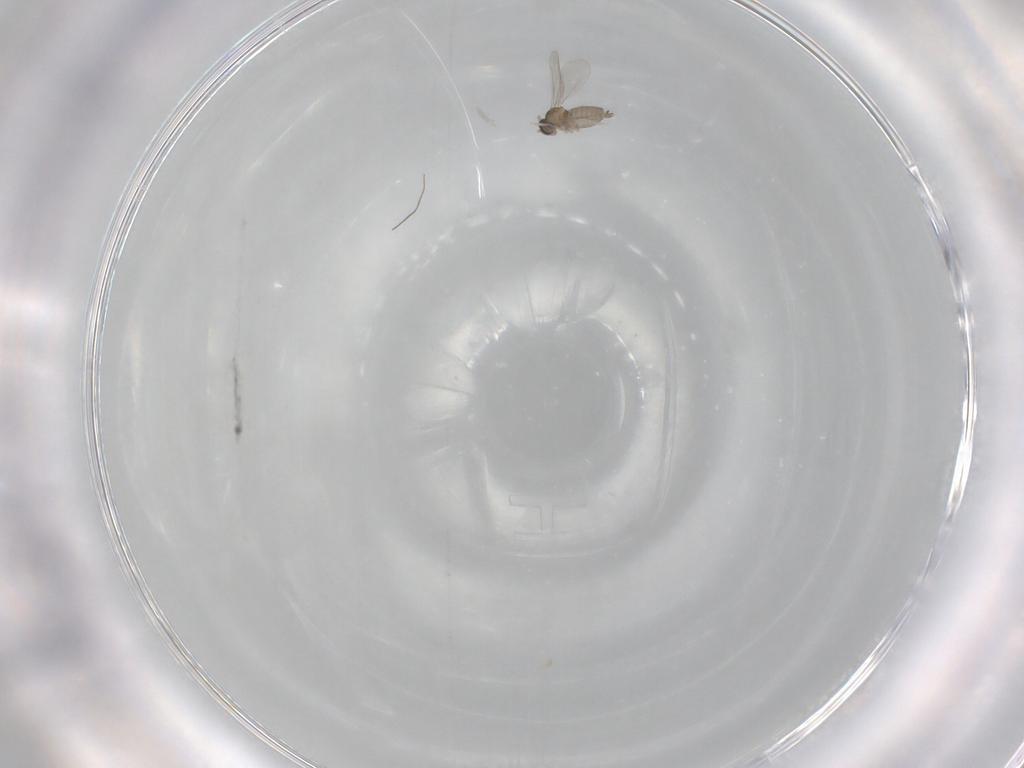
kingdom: Animalia
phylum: Arthropoda
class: Insecta
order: Diptera
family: Cecidomyiidae
